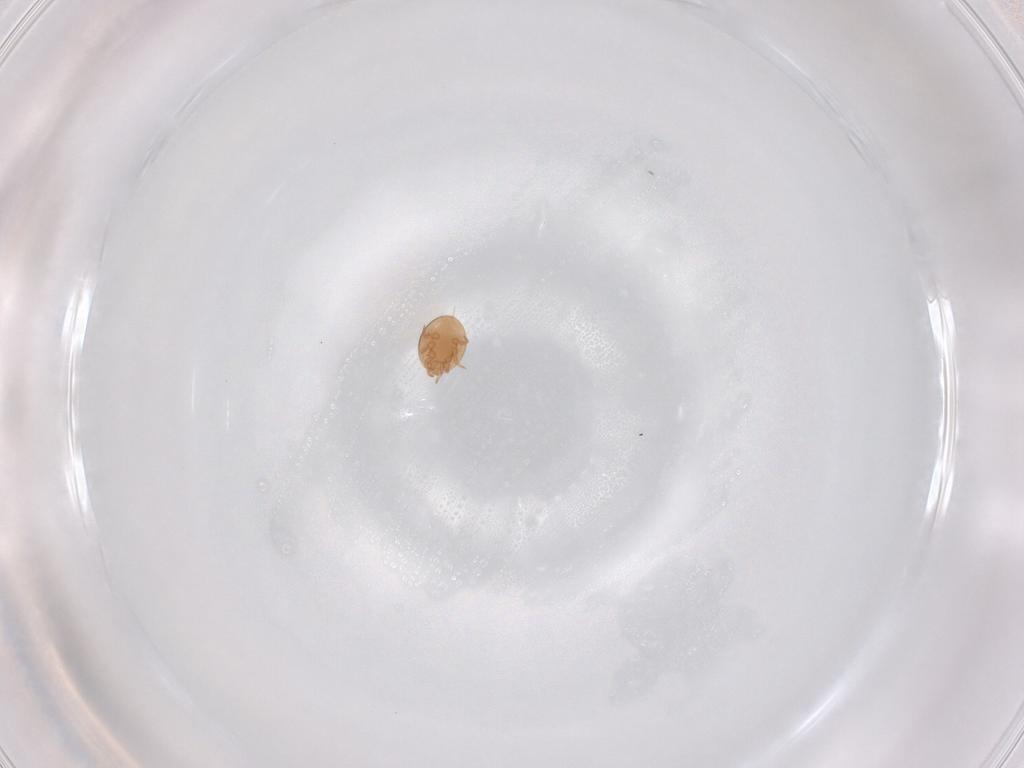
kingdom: Animalia
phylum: Arthropoda
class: Arachnida
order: Mesostigmata
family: Trematuridae
